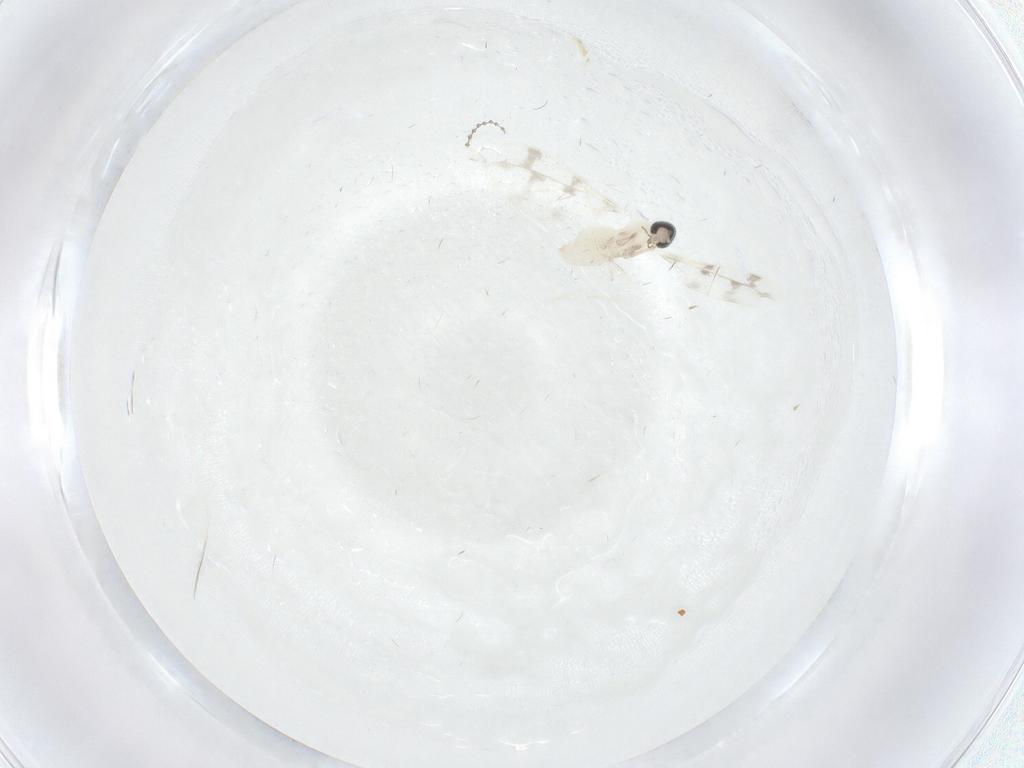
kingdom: Animalia
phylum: Arthropoda
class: Insecta
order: Diptera
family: Cecidomyiidae
